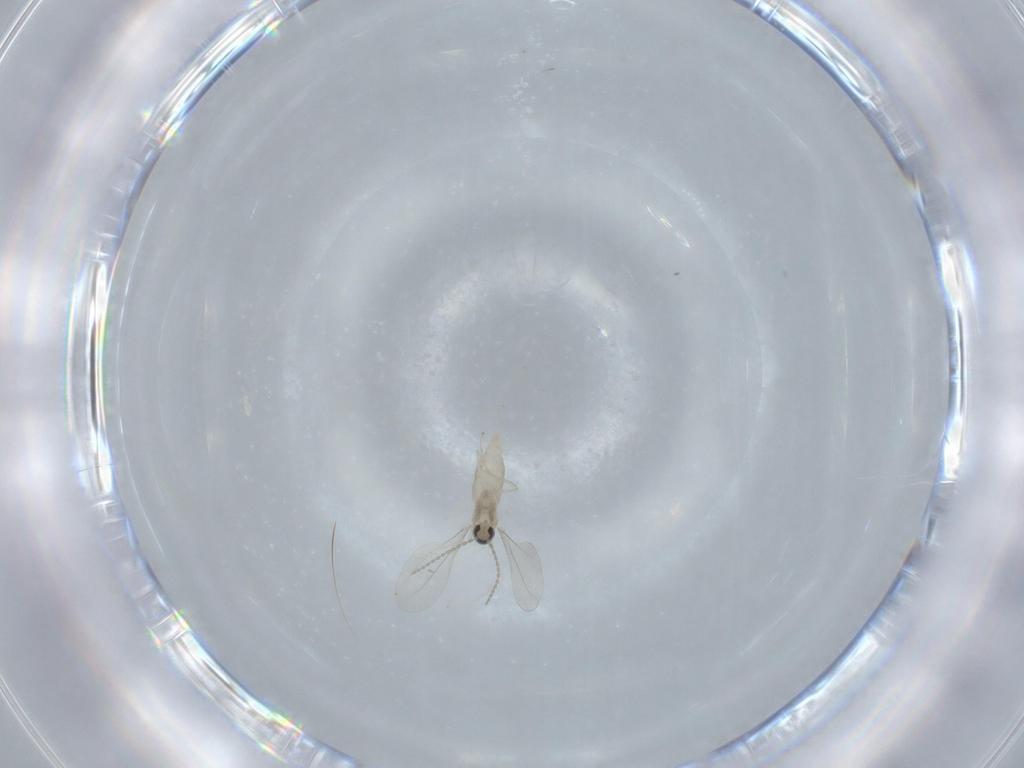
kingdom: Animalia
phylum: Arthropoda
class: Insecta
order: Diptera
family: Cecidomyiidae
